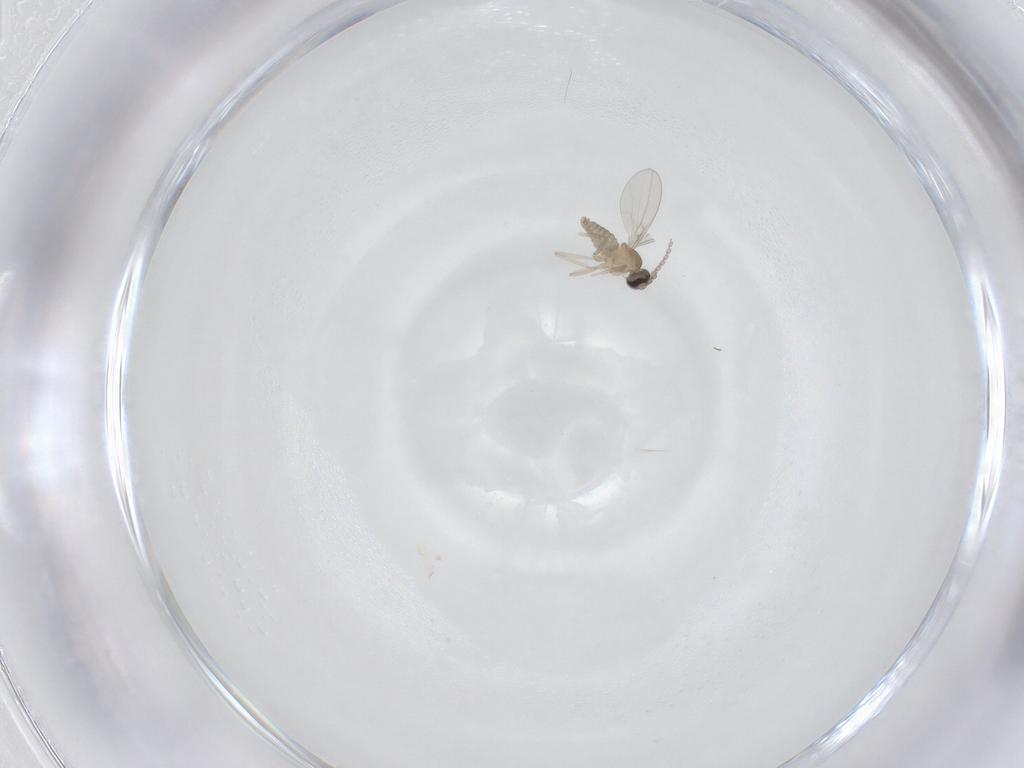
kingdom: Animalia
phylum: Arthropoda
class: Insecta
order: Diptera
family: Cecidomyiidae
